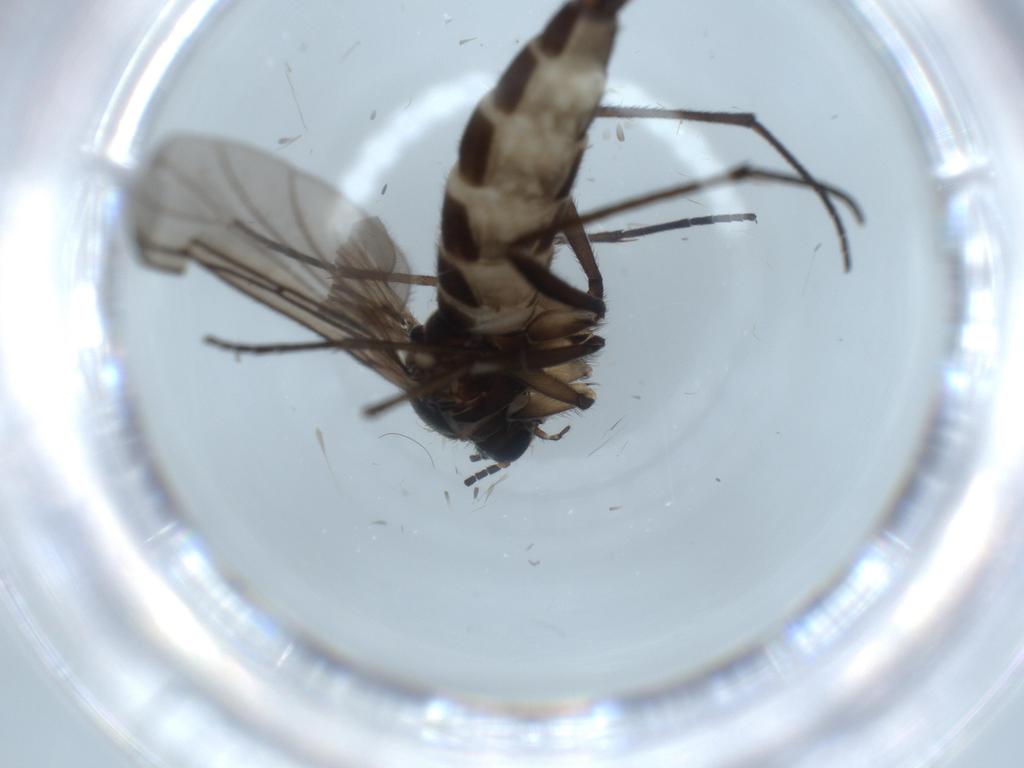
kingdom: Animalia
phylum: Arthropoda
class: Insecta
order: Diptera
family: Sciaridae
